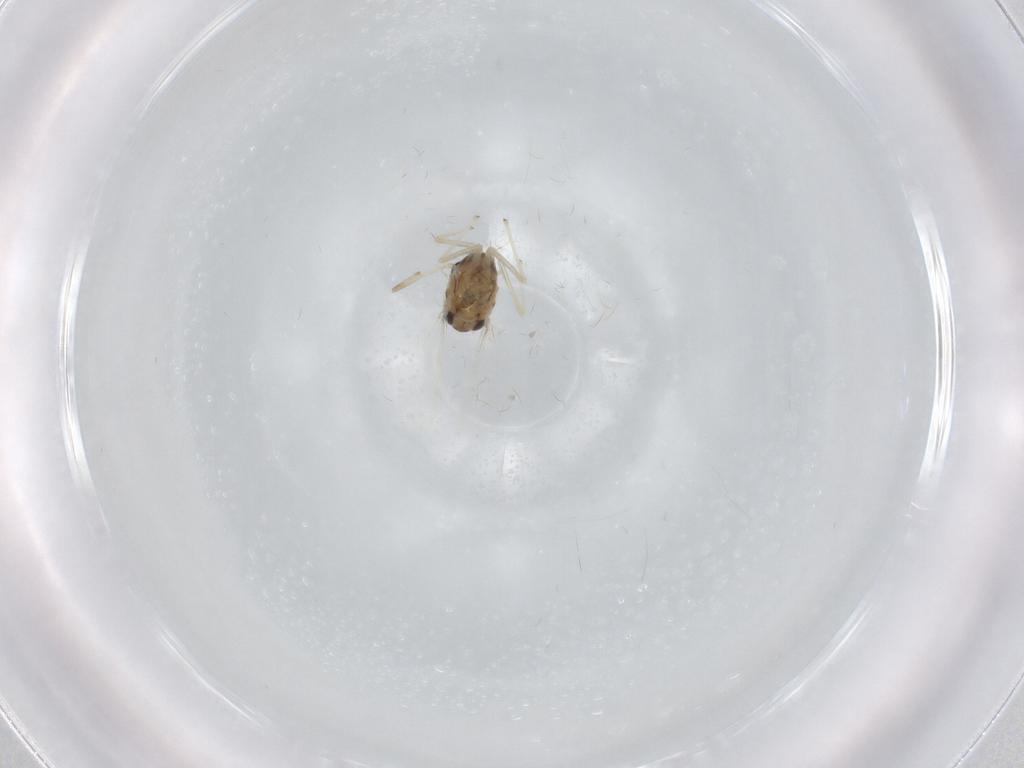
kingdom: Animalia
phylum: Arthropoda
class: Insecta
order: Diptera
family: Chironomidae
